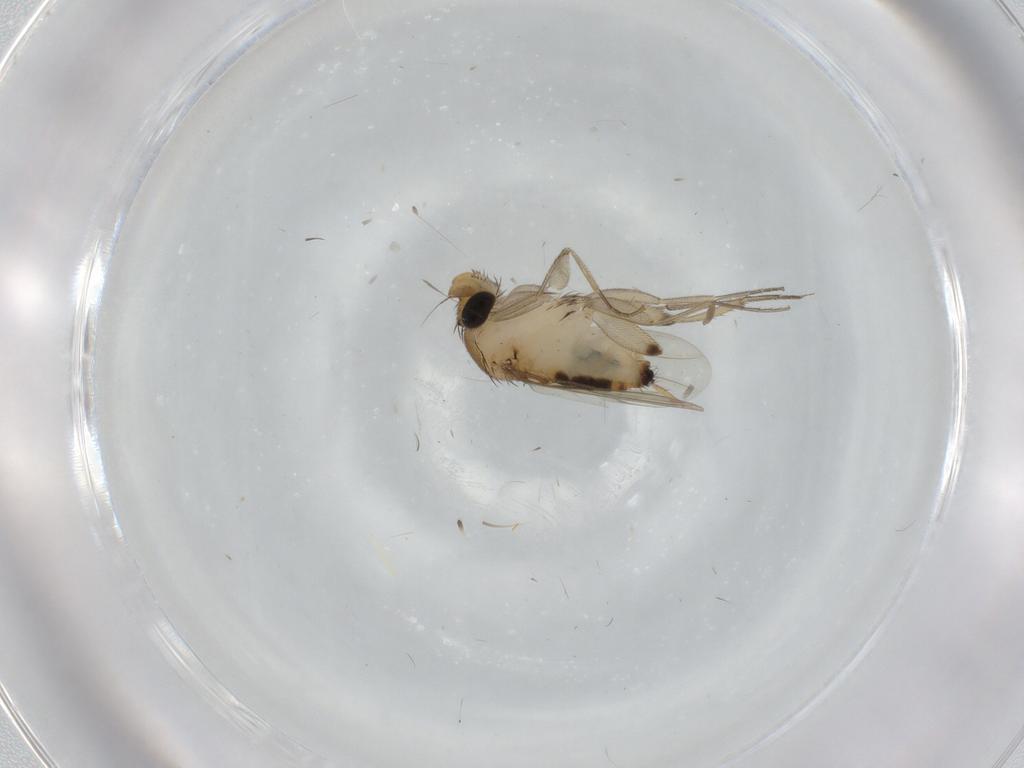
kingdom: Animalia
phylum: Arthropoda
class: Insecta
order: Diptera
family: Phoridae
